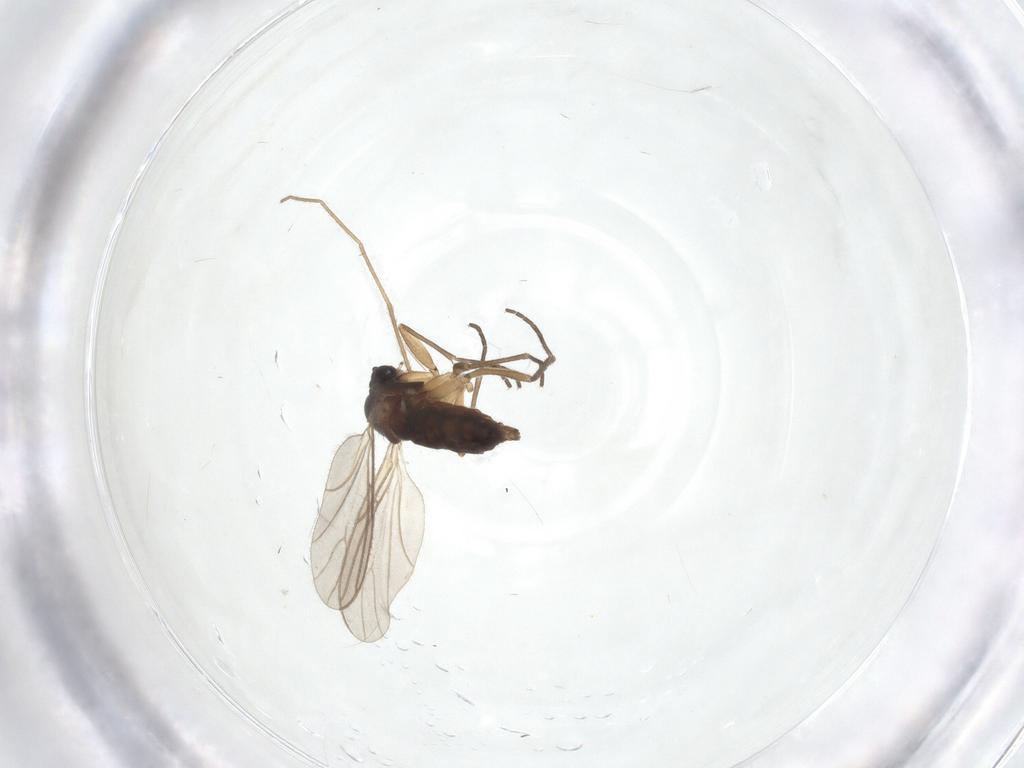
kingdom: Animalia
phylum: Arthropoda
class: Insecta
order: Diptera
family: Sciaridae
